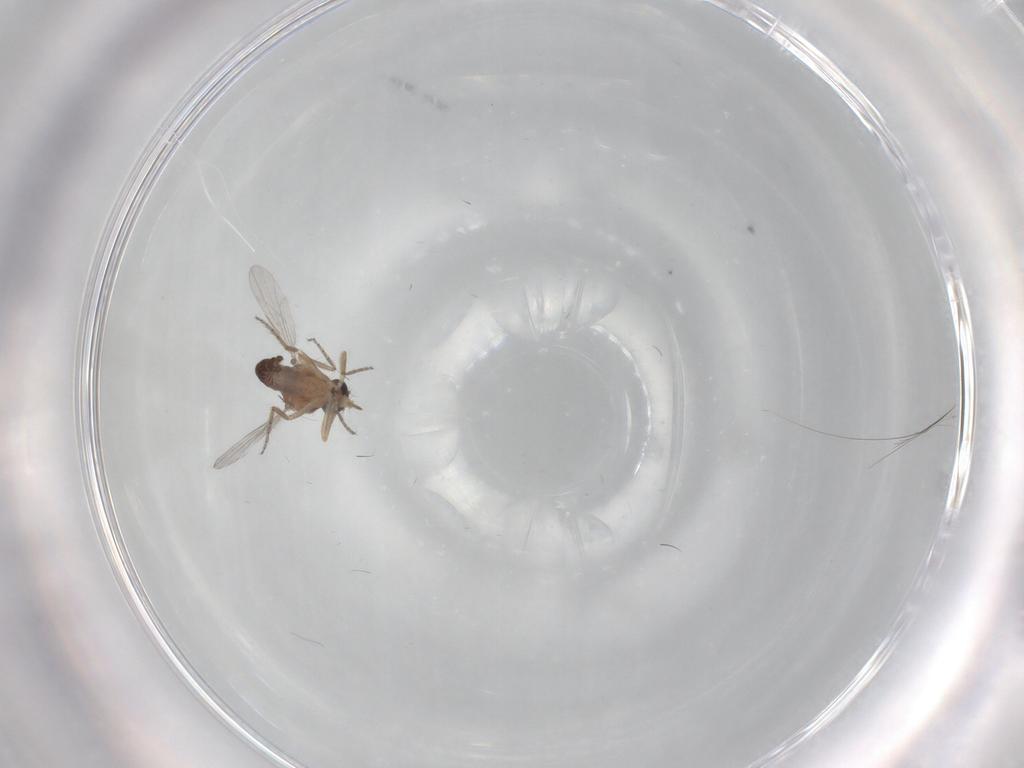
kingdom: Animalia
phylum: Arthropoda
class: Insecta
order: Diptera
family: Ceratopogonidae
